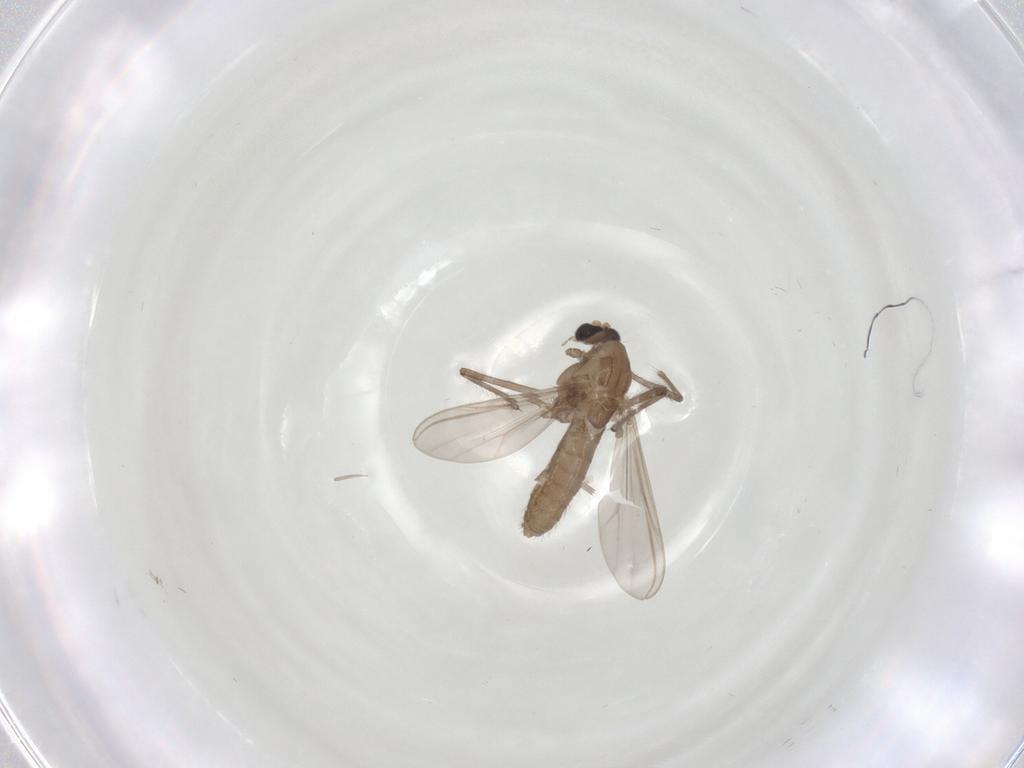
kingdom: Animalia
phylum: Arthropoda
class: Insecta
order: Diptera
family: Chironomidae
